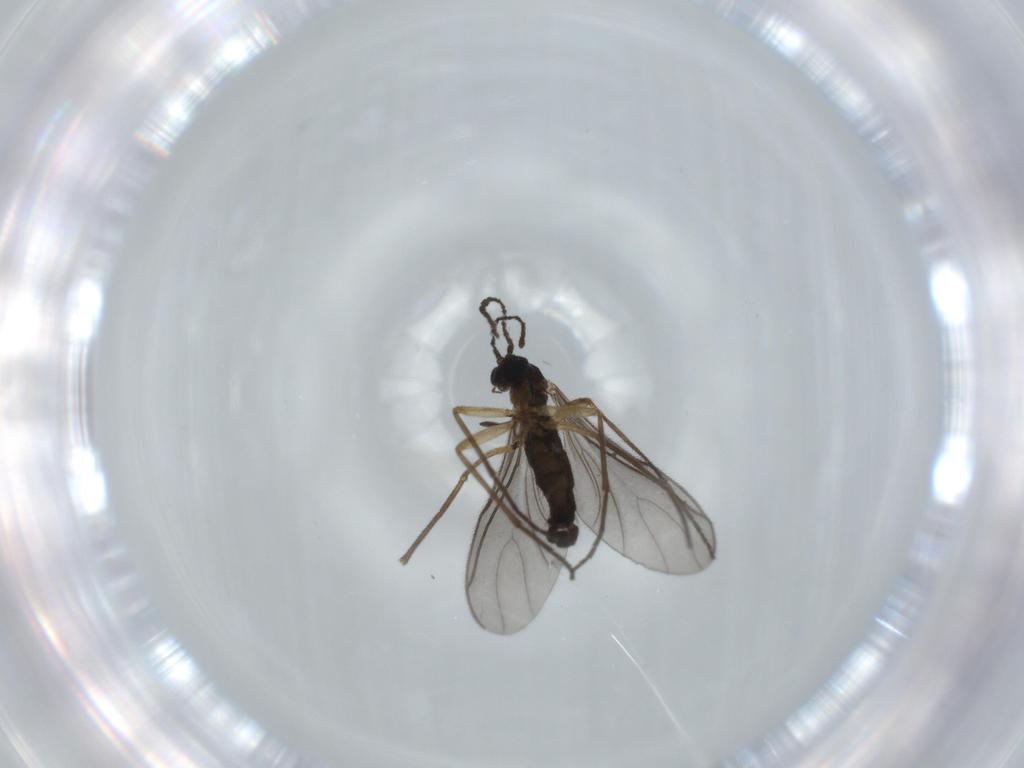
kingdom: Animalia
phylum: Arthropoda
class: Insecta
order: Diptera
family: Sciaridae
